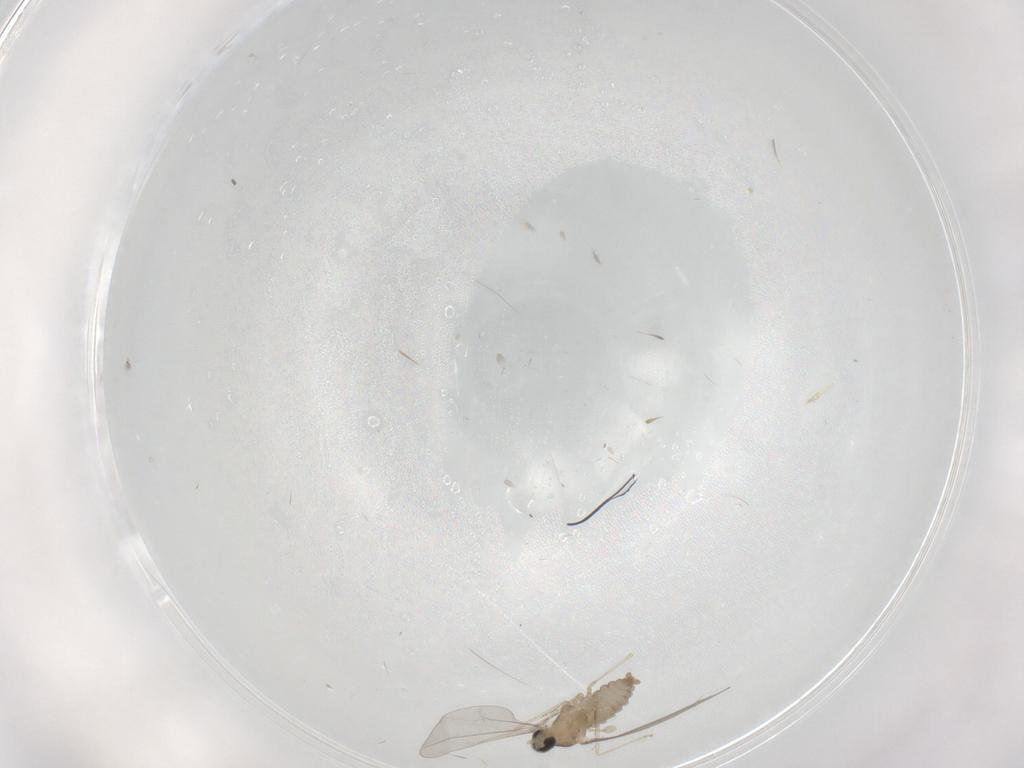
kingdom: Animalia
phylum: Arthropoda
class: Insecta
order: Diptera
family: Cecidomyiidae
